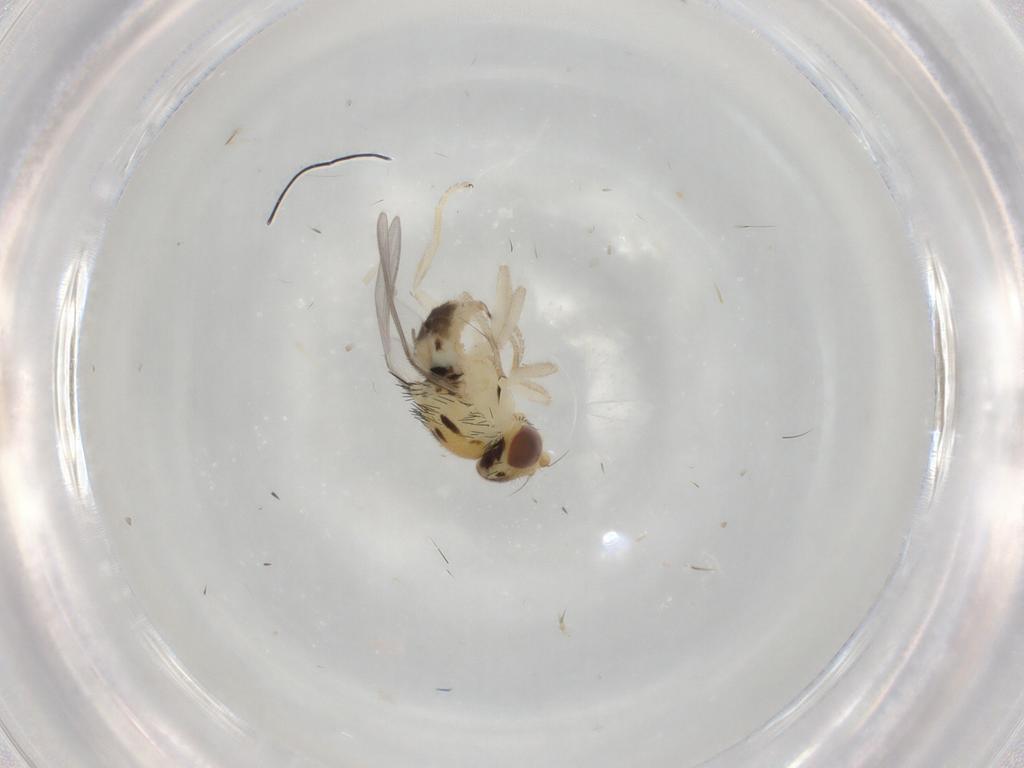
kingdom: Animalia
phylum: Arthropoda
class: Insecta
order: Diptera
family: Chloropidae
